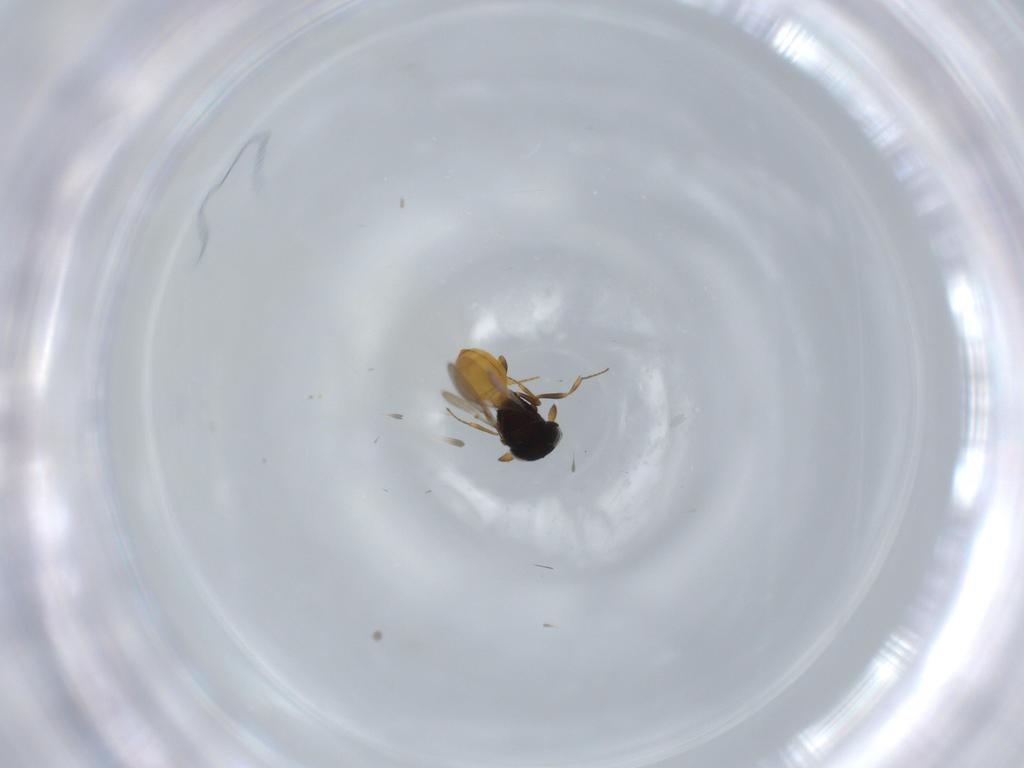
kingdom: Animalia
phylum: Arthropoda
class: Insecta
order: Hymenoptera
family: Scelionidae
